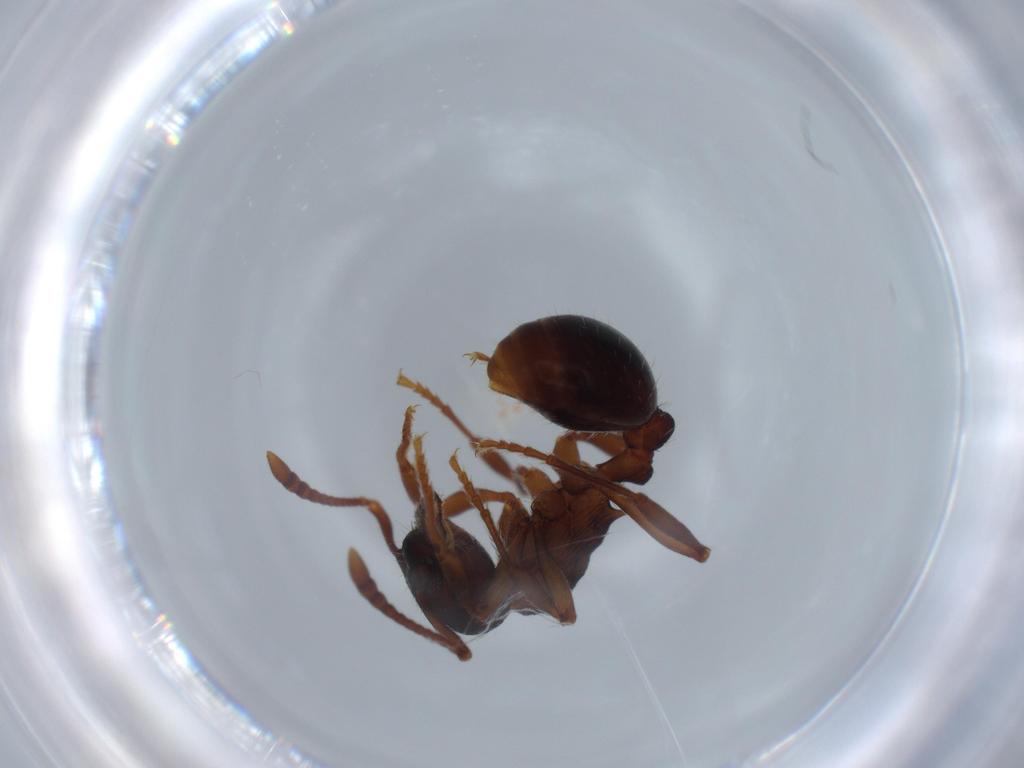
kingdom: Animalia
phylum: Arthropoda
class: Insecta
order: Hymenoptera
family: Formicidae
